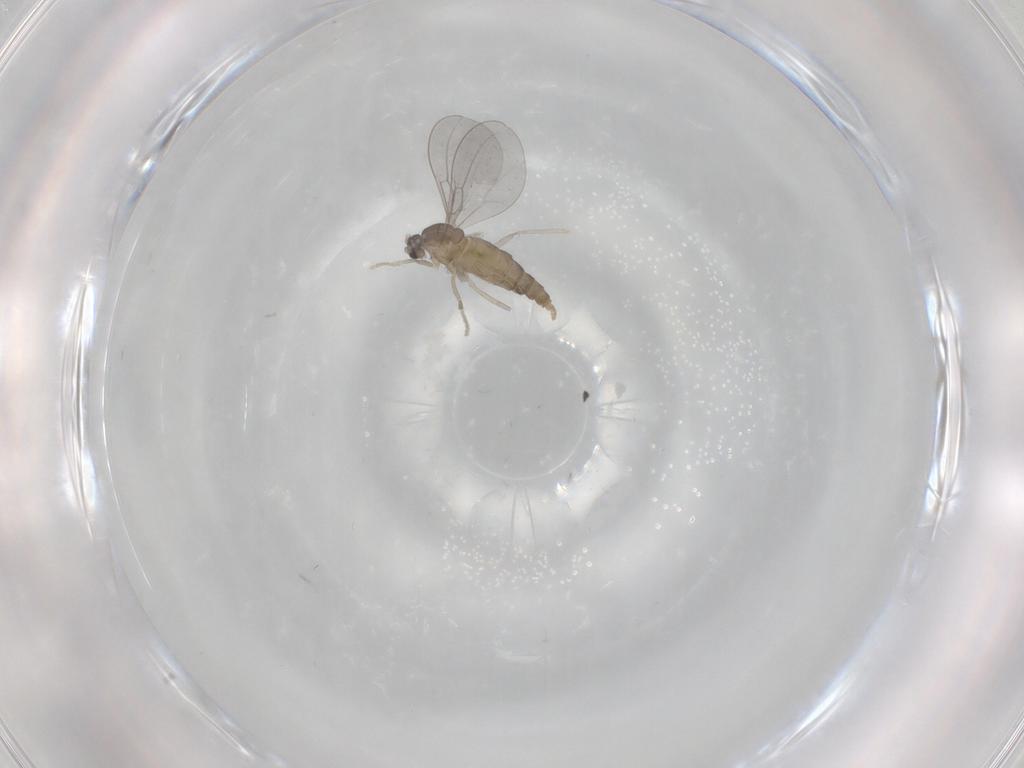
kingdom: Animalia
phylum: Arthropoda
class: Insecta
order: Diptera
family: Cecidomyiidae
